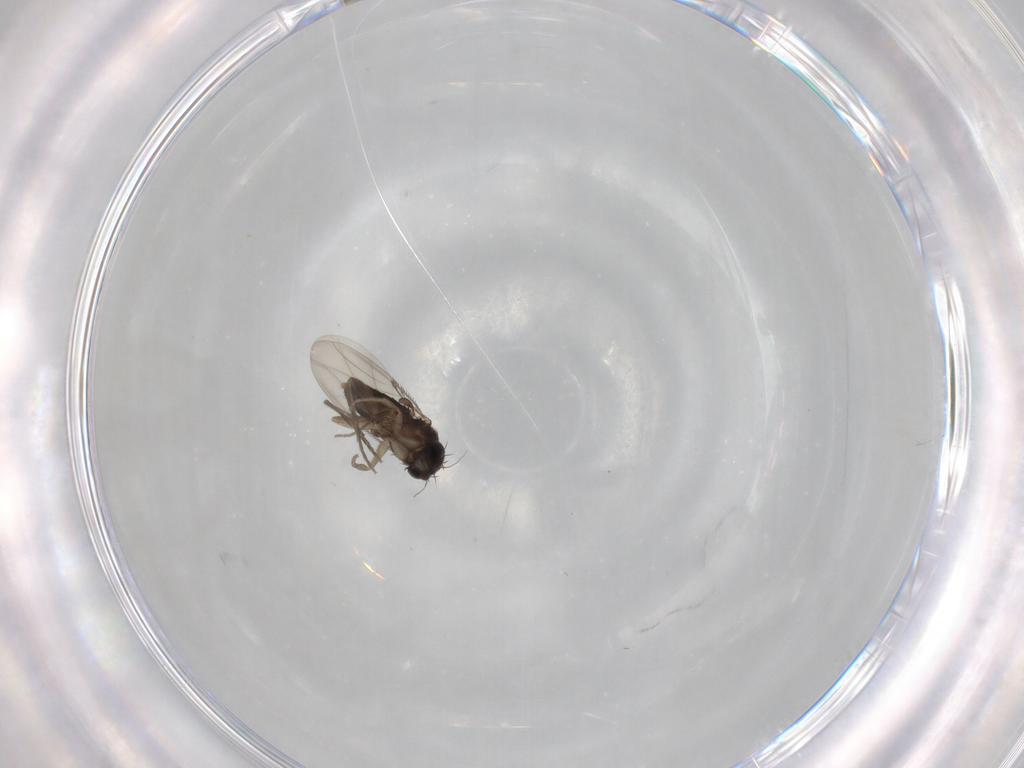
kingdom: Animalia
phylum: Arthropoda
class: Insecta
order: Diptera
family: Phoridae
